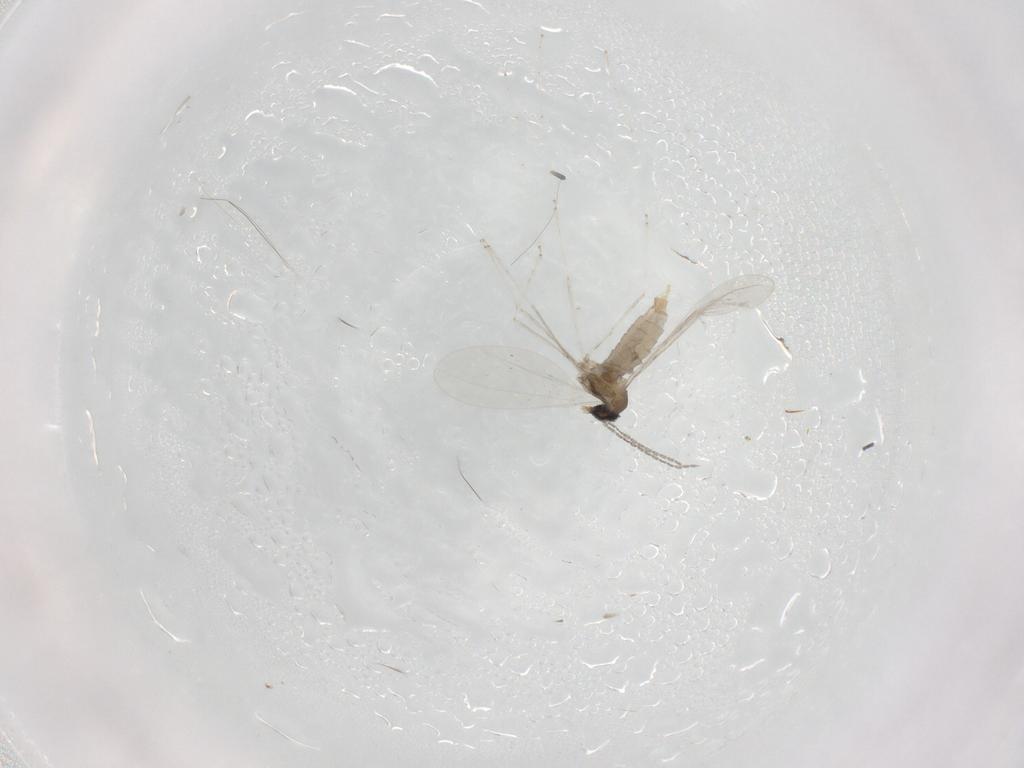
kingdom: Animalia
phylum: Arthropoda
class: Insecta
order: Diptera
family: Cecidomyiidae
